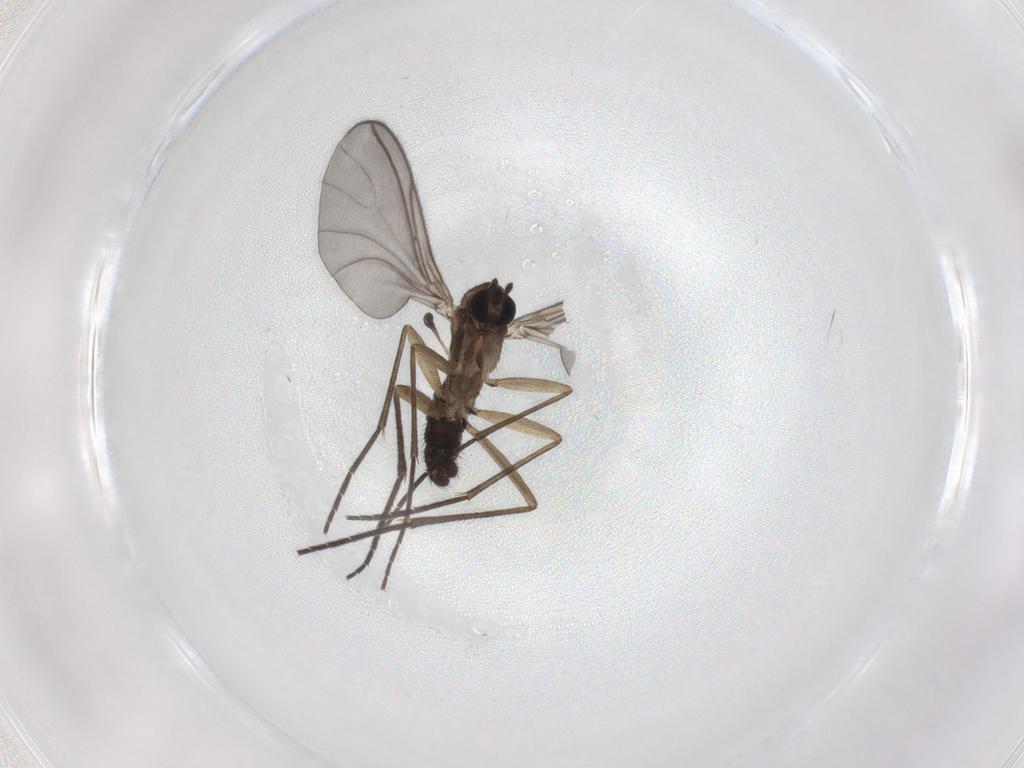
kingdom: Animalia
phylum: Arthropoda
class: Insecta
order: Diptera
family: Sciaridae
